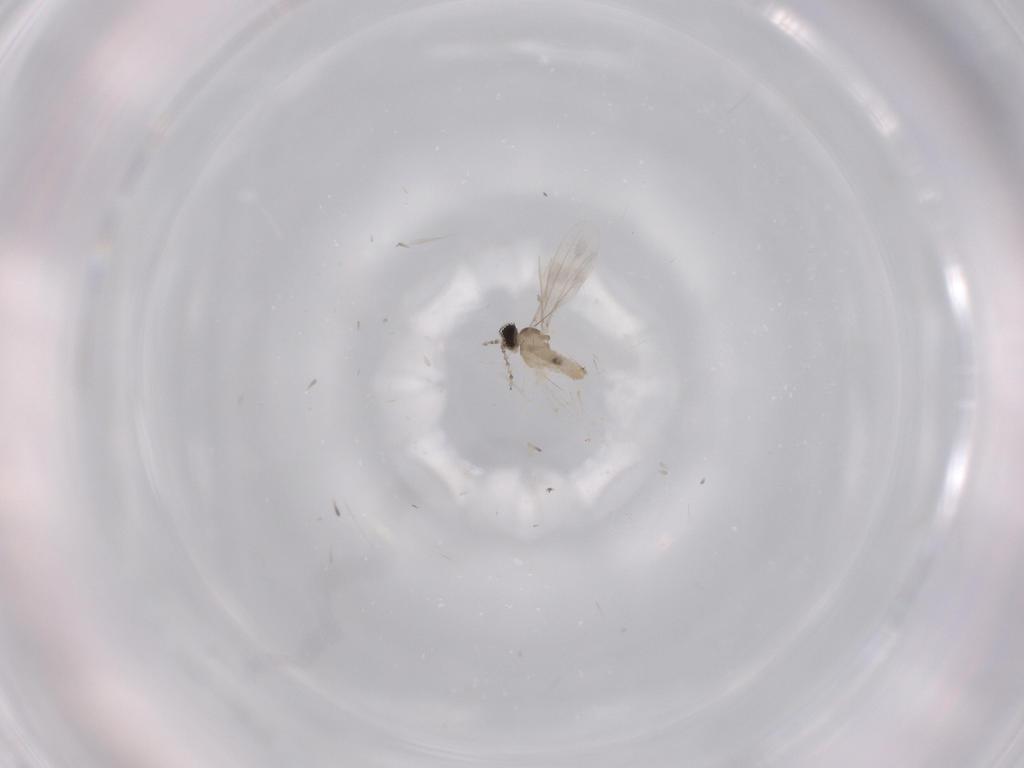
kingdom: Animalia
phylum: Arthropoda
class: Insecta
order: Diptera
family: Cecidomyiidae
